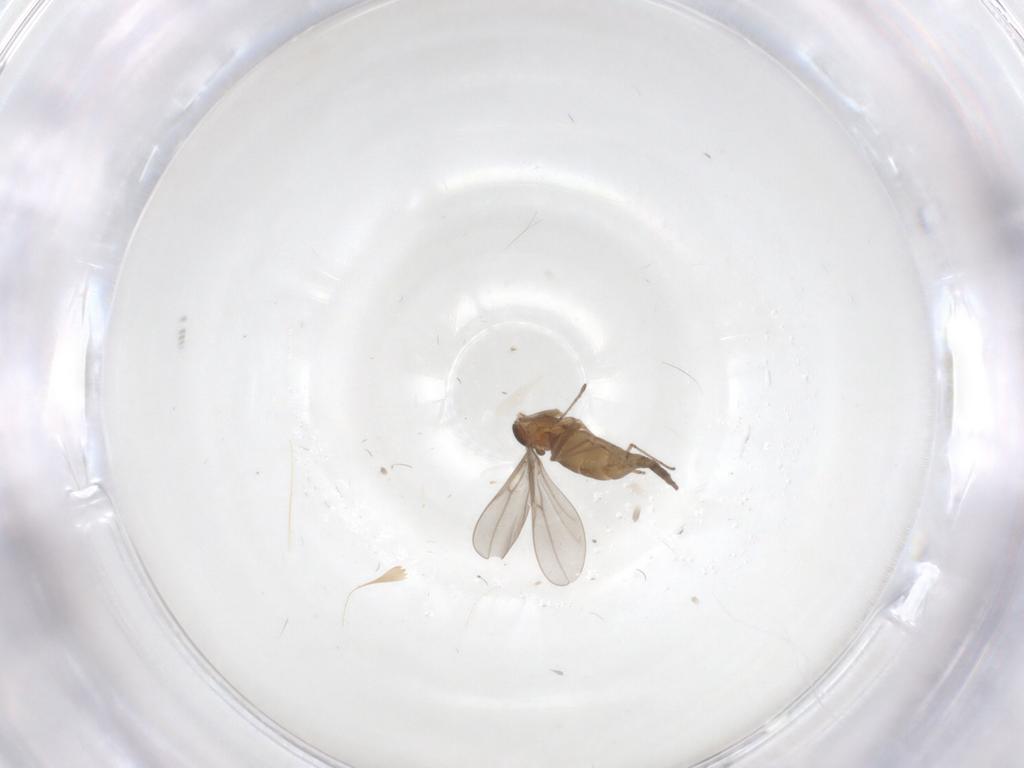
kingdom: Animalia
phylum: Arthropoda
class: Insecta
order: Diptera
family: Cecidomyiidae
